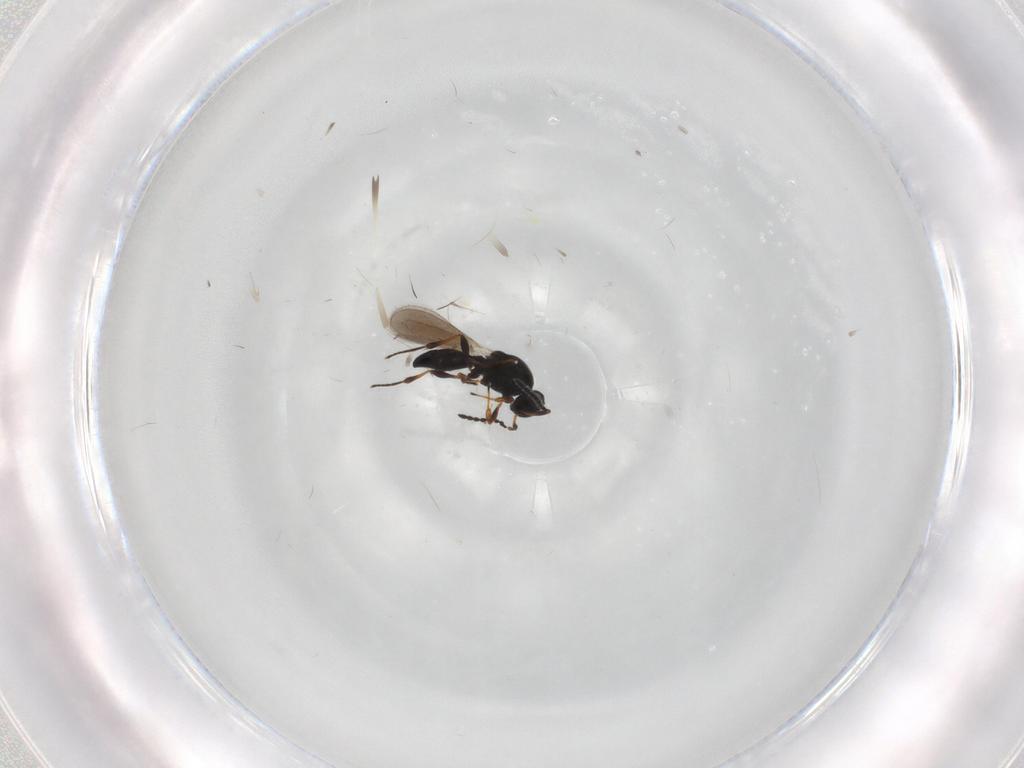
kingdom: Animalia
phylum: Arthropoda
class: Insecta
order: Hymenoptera
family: Platygastridae
